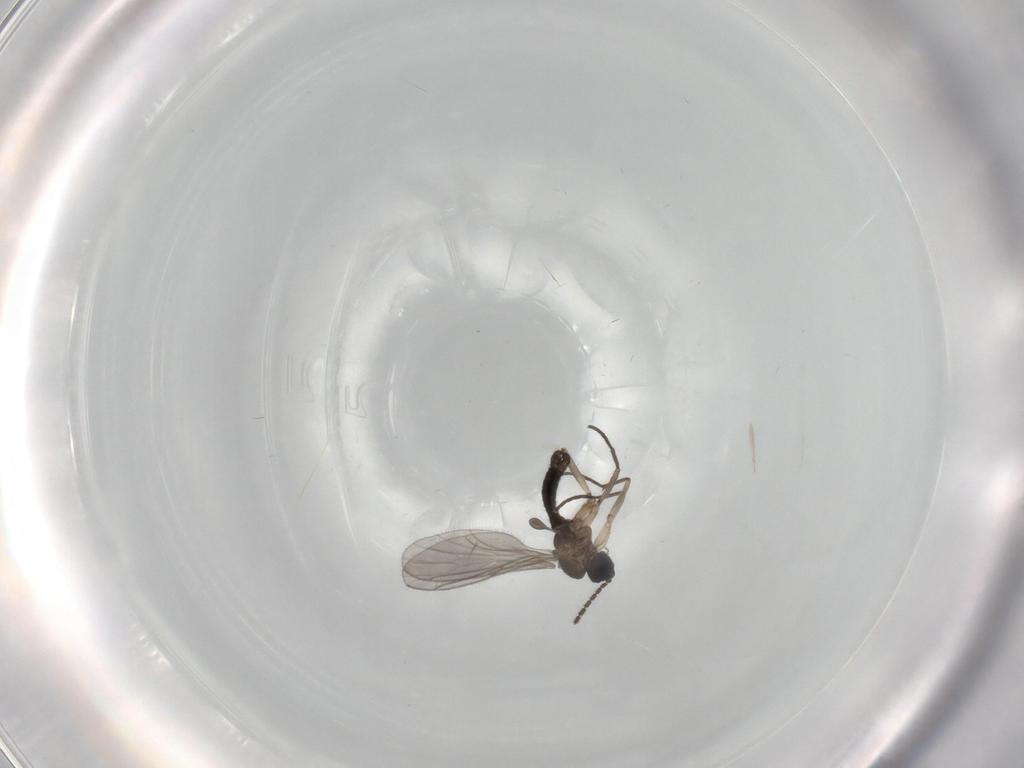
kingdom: Animalia
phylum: Arthropoda
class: Insecta
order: Diptera
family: Sciaridae
